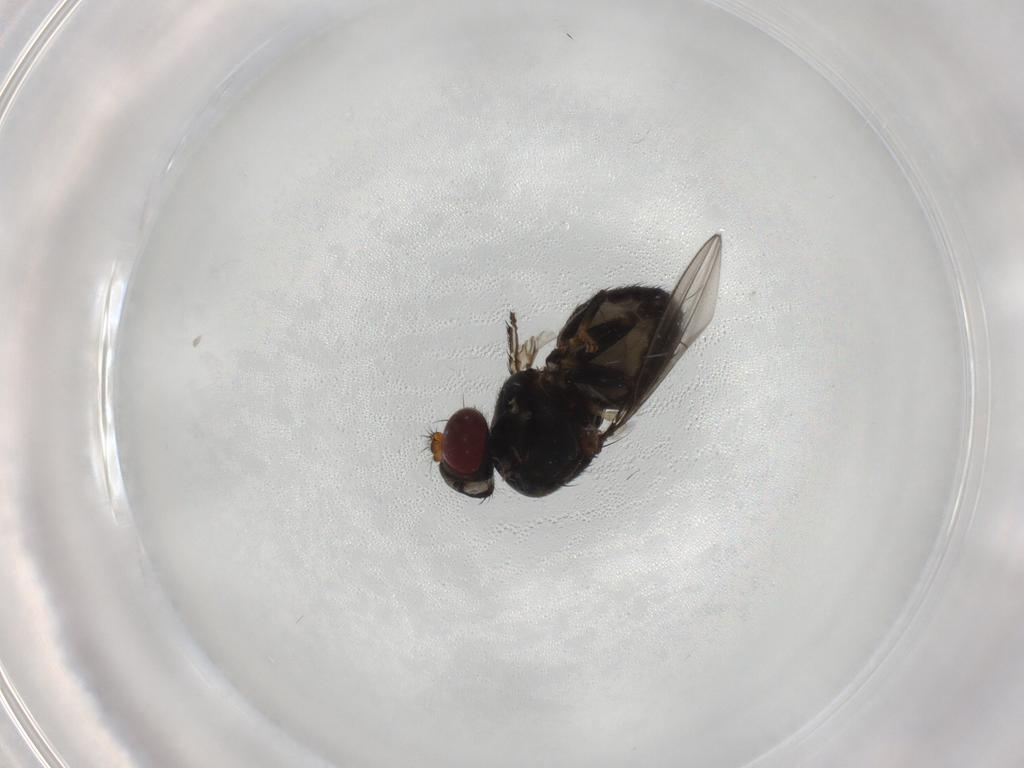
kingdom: Animalia
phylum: Arthropoda
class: Insecta
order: Diptera
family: Ephydridae
